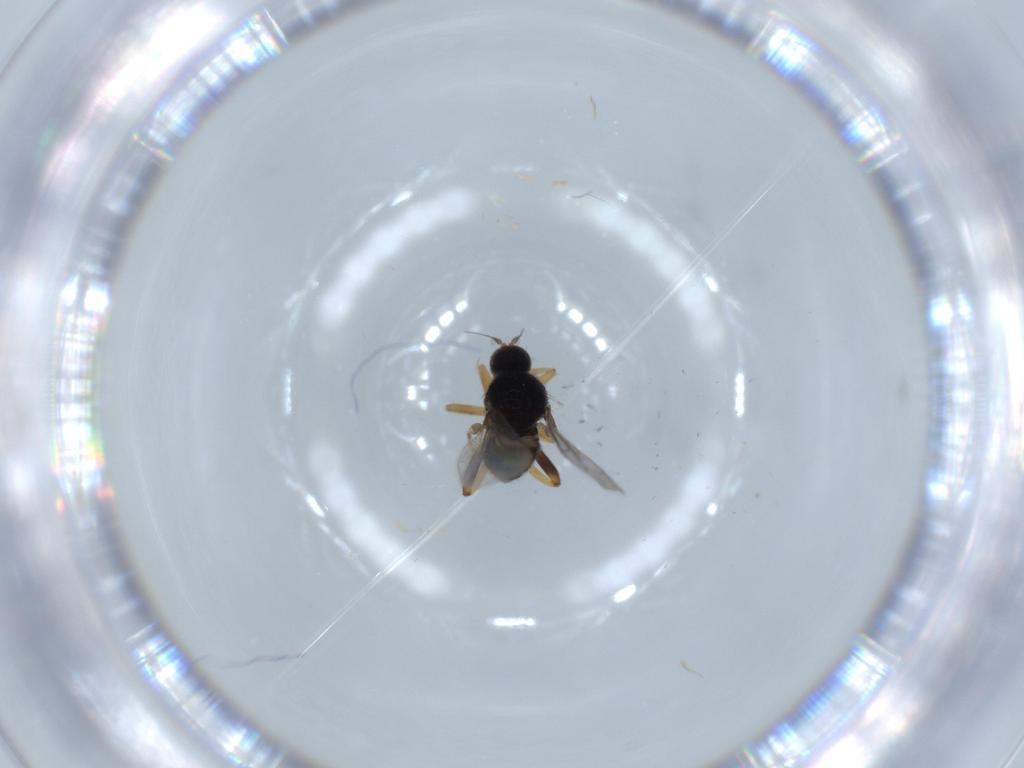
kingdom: Animalia
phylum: Arthropoda
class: Insecta
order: Diptera
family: Hybotidae
